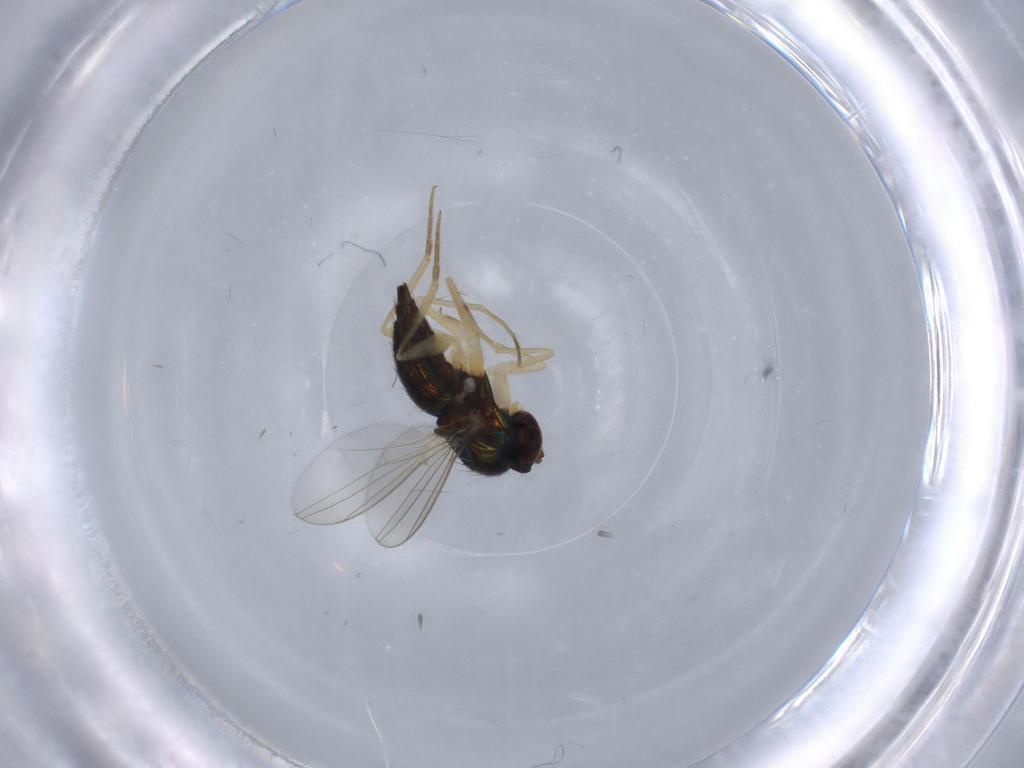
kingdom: Animalia
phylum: Arthropoda
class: Insecta
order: Diptera
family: Dolichopodidae
